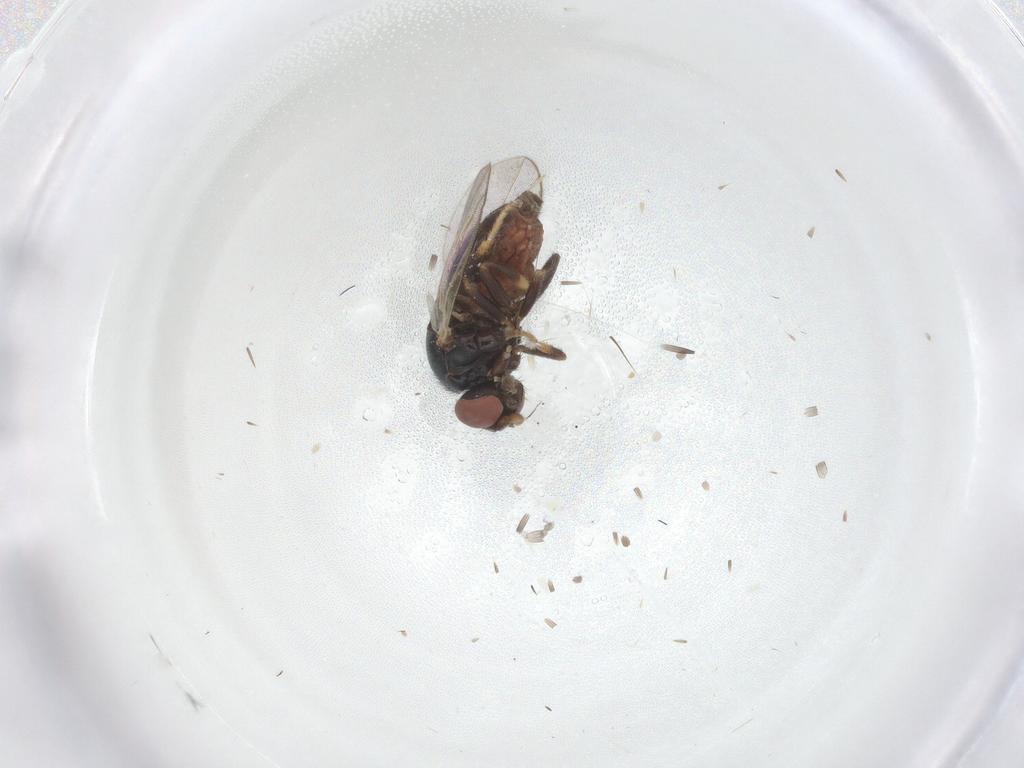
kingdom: Animalia
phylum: Arthropoda
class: Insecta
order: Diptera
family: Chloropidae
